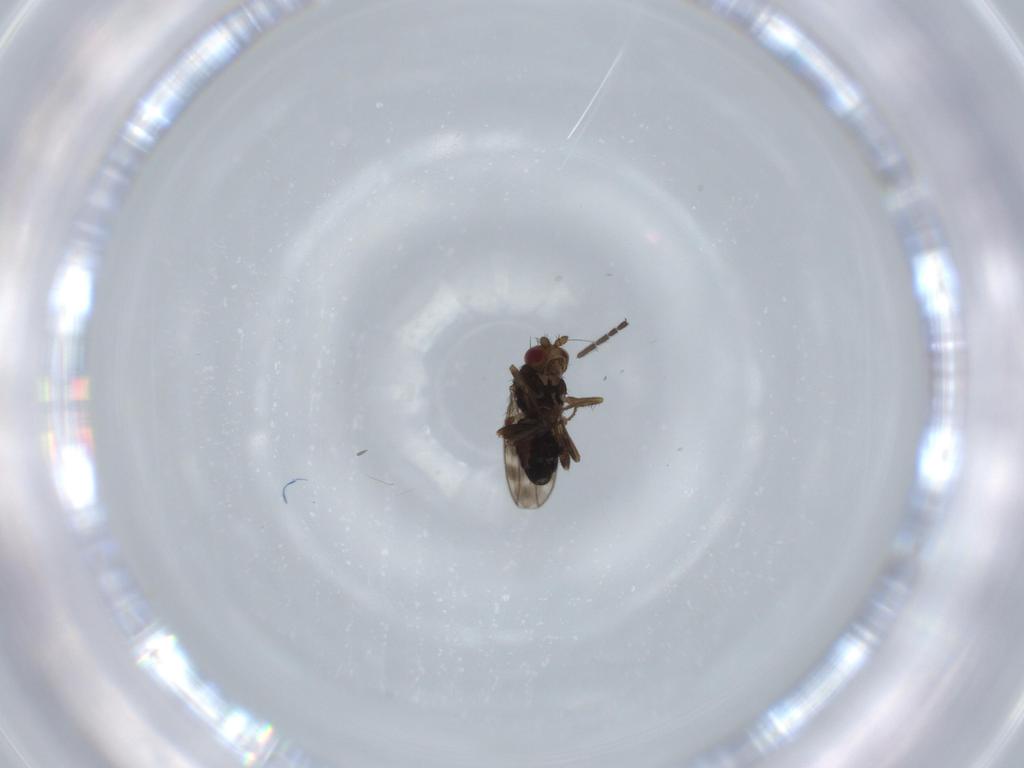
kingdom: Animalia
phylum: Arthropoda
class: Insecta
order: Diptera
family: Sphaeroceridae
